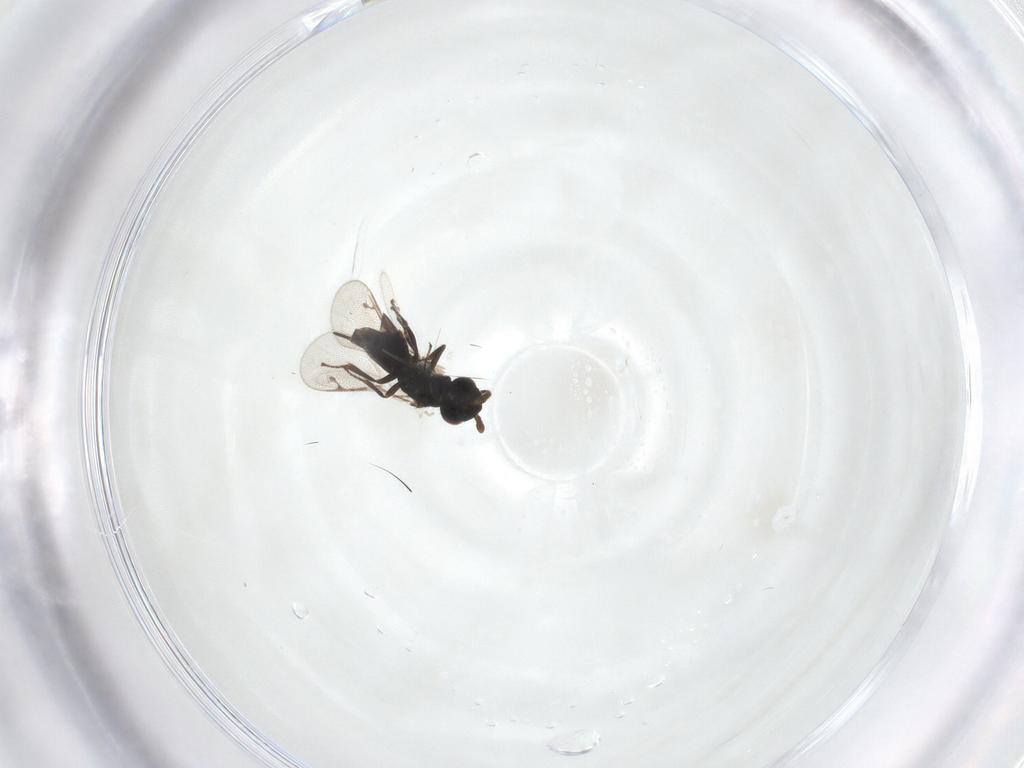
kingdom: Animalia
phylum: Arthropoda
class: Insecta
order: Hymenoptera
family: Pirenidae
